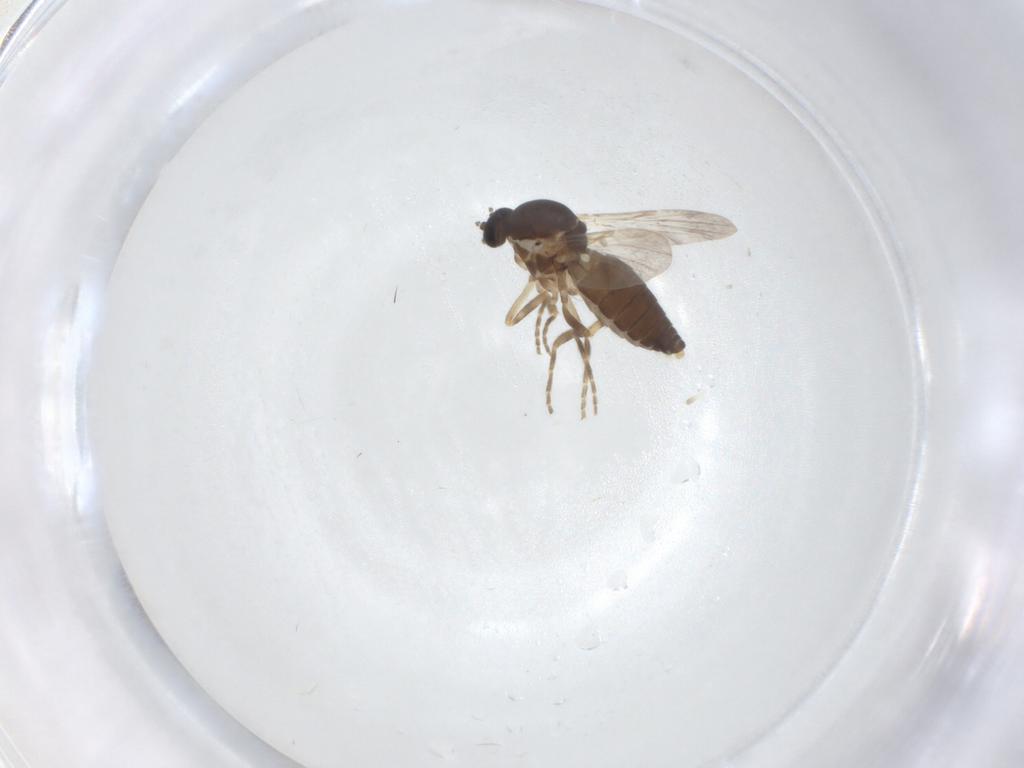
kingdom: Animalia
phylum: Arthropoda
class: Insecta
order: Diptera
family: Ceratopogonidae
